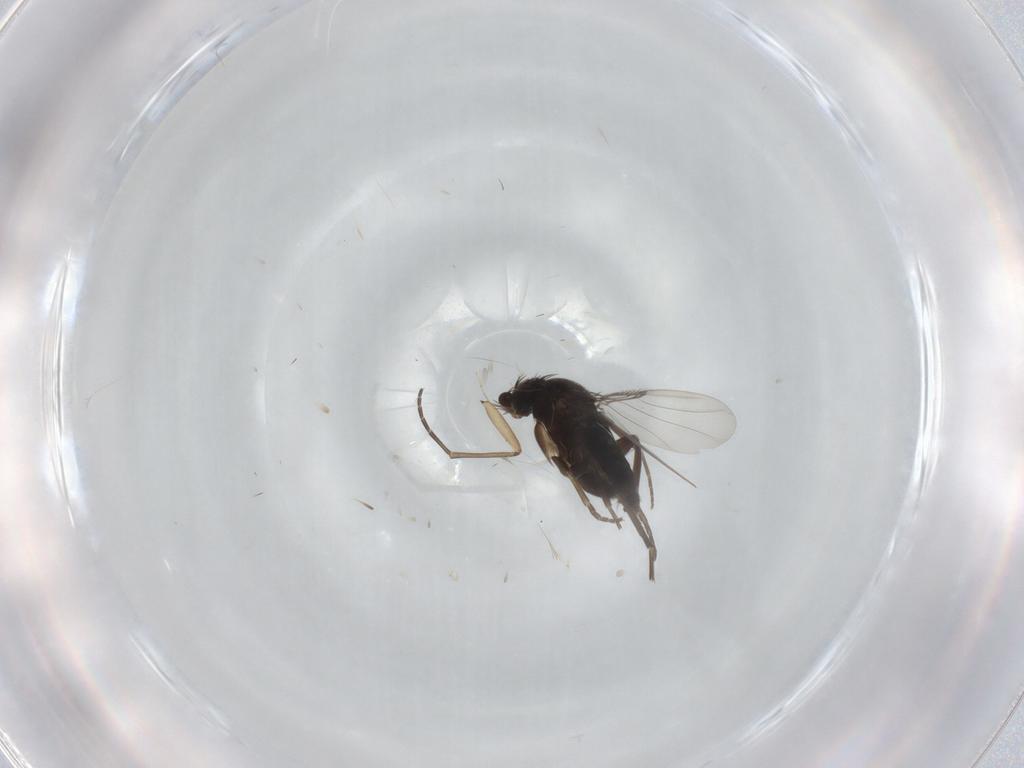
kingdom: Animalia
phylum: Arthropoda
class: Insecta
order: Diptera
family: Phoridae
